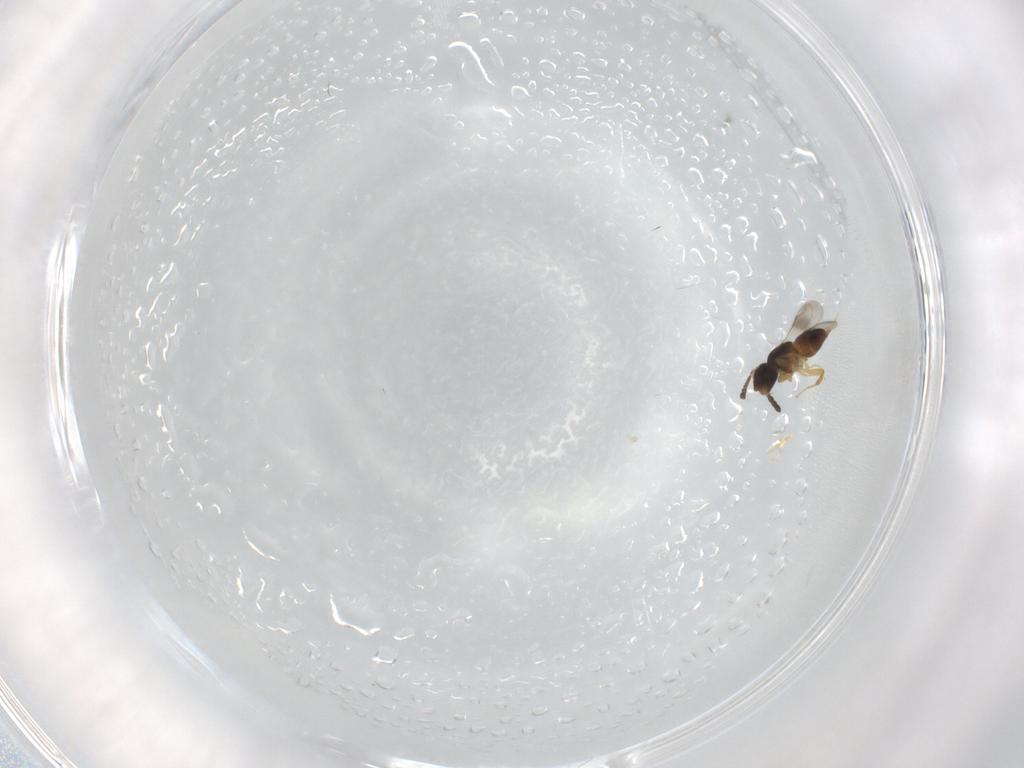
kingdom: Animalia
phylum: Arthropoda
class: Insecta
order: Hymenoptera
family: Ceraphronidae
